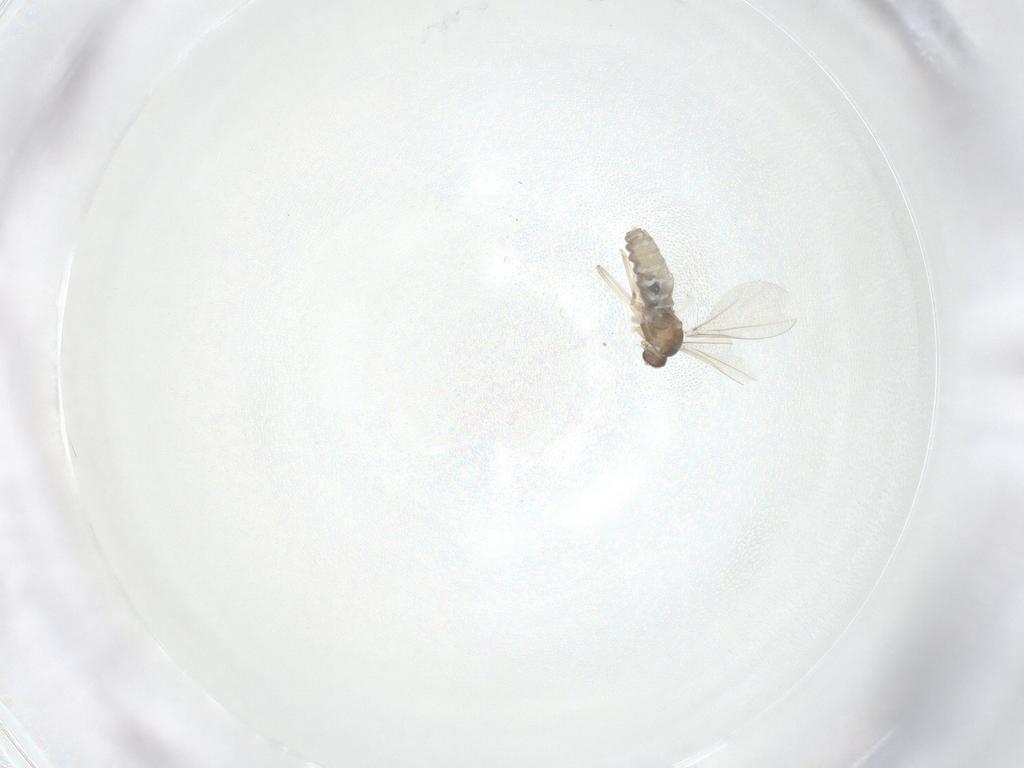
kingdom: Animalia
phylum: Arthropoda
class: Insecta
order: Diptera
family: Cecidomyiidae
